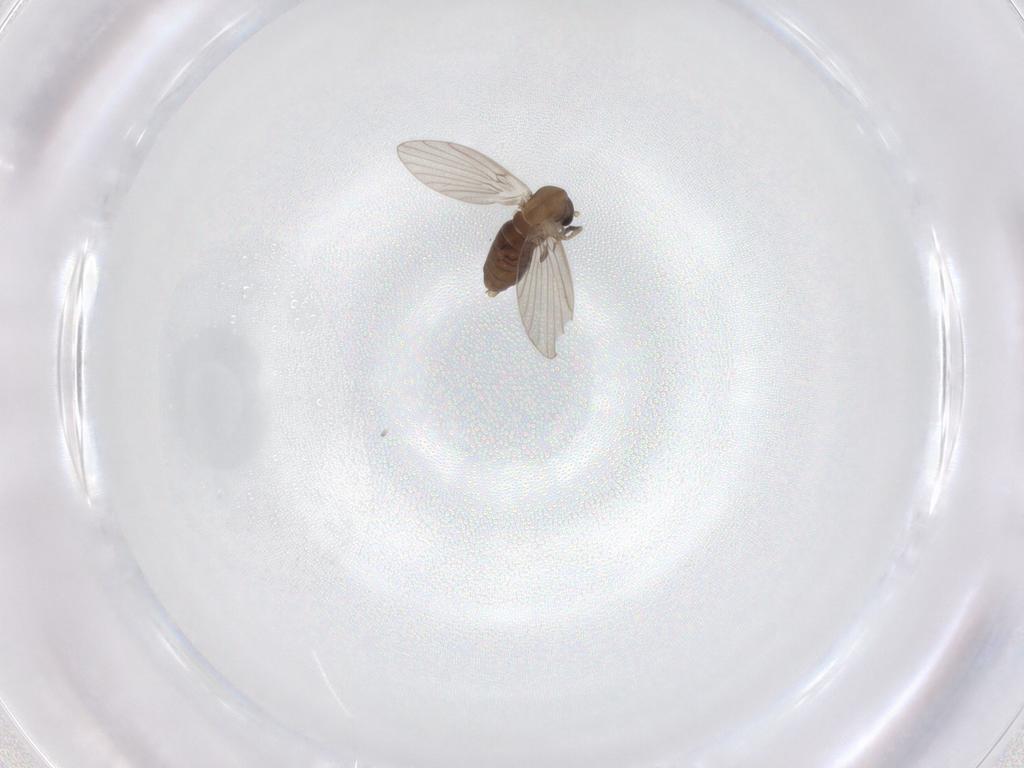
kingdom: Animalia
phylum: Arthropoda
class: Insecta
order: Diptera
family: Cecidomyiidae
